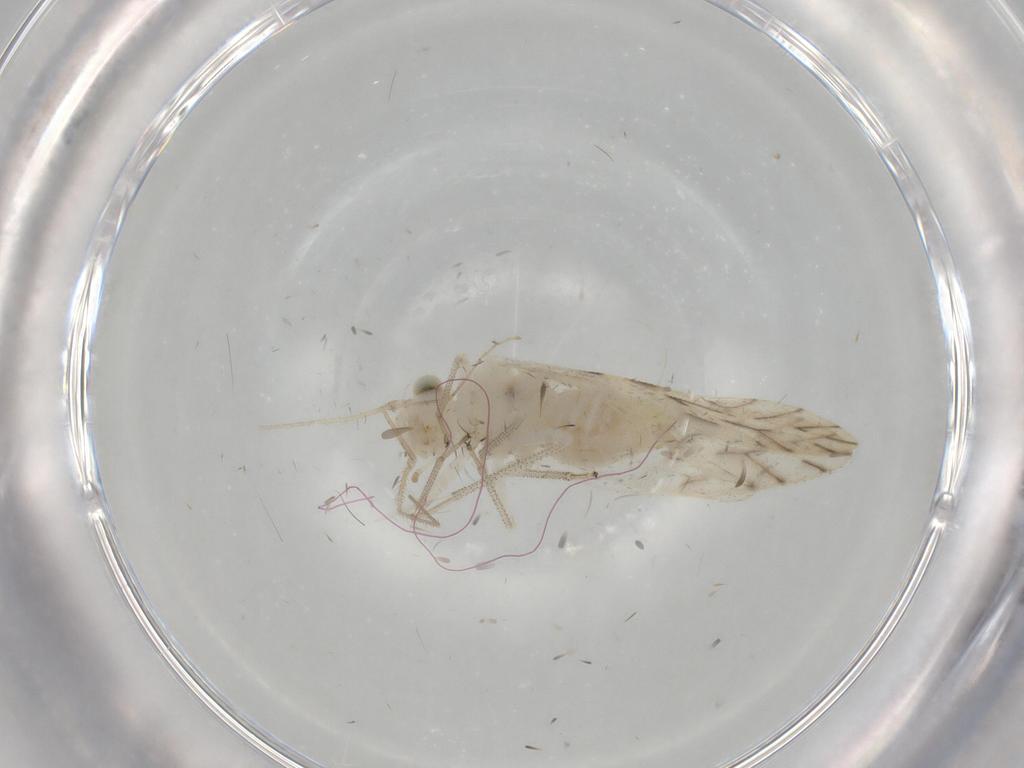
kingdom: Animalia
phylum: Arthropoda
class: Insecta
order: Psocodea
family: Caeciliusidae
